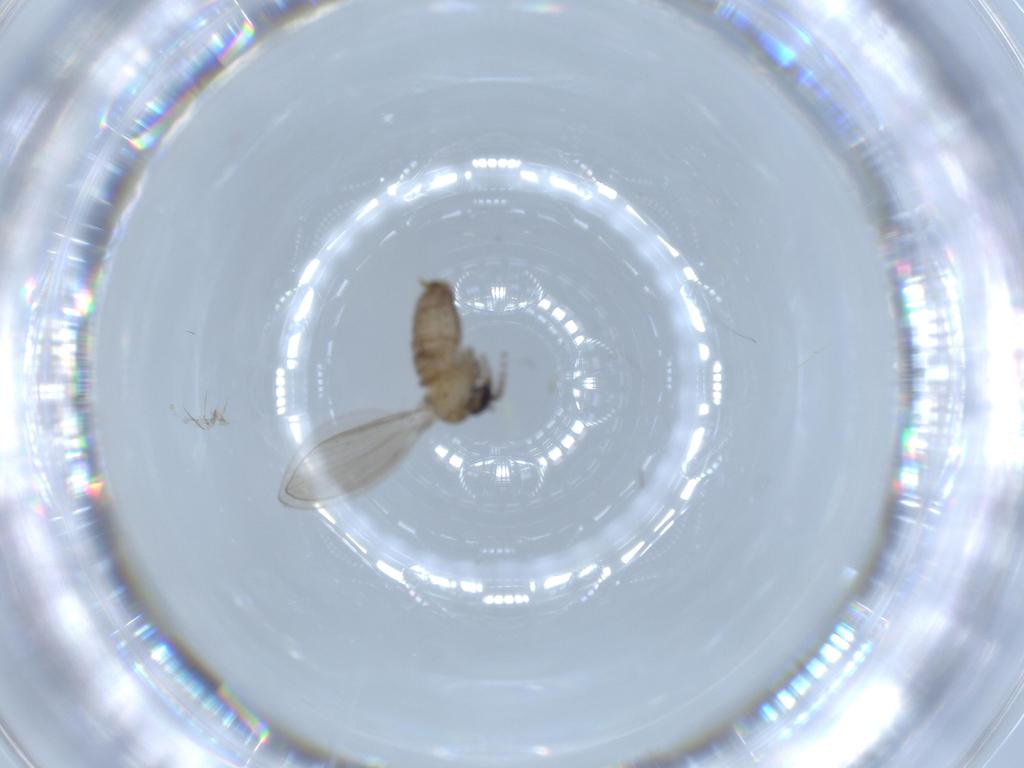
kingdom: Animalia
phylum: Arthropoda
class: Insecta
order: Diptera
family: Psychodidae
